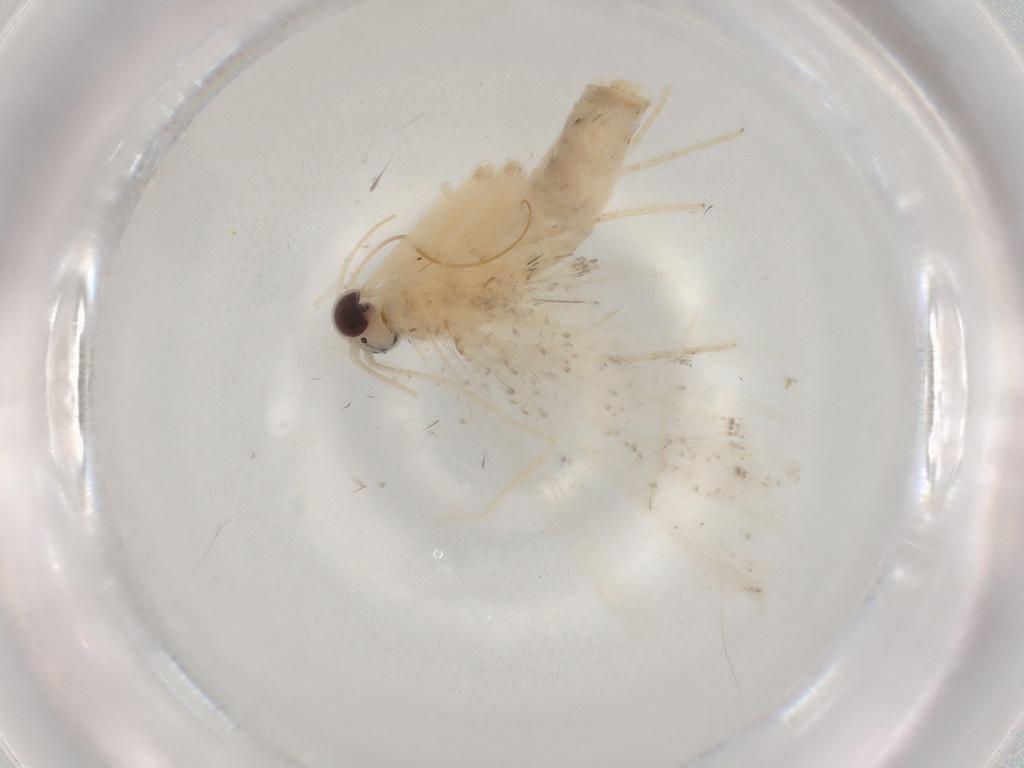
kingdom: Animalia
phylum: Arthropoda
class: Insecta
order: Lepidoptera
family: Crambidae
